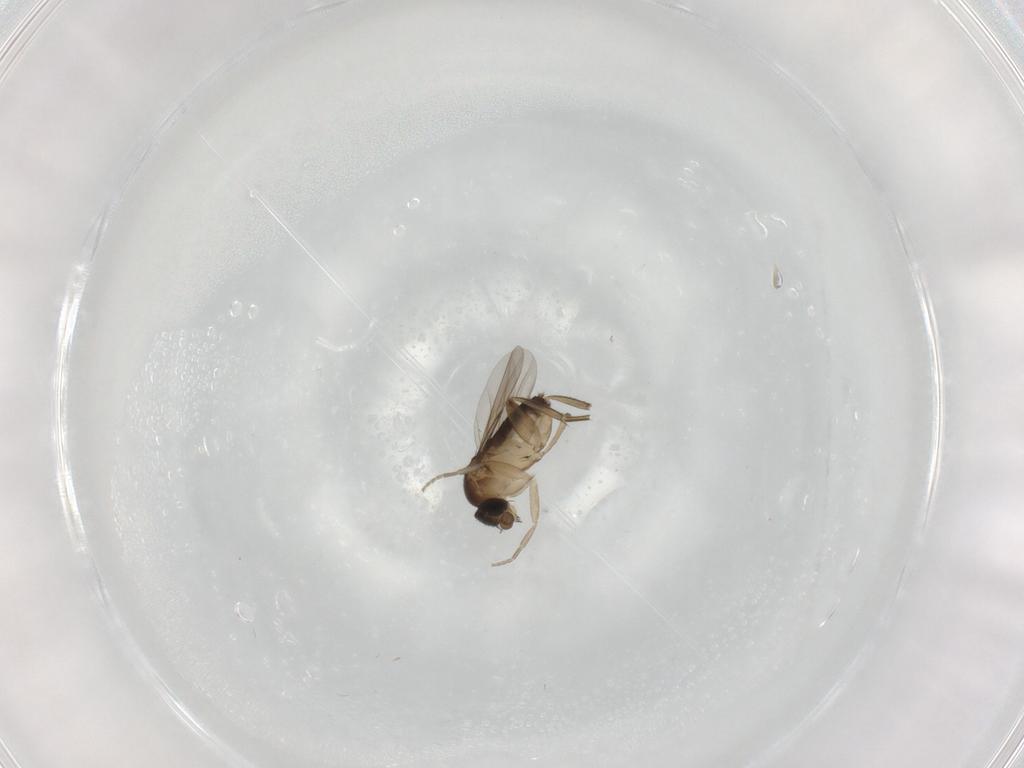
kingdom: Animalia
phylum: Arthropoda
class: Insecta
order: Diptera
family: Phoridae
